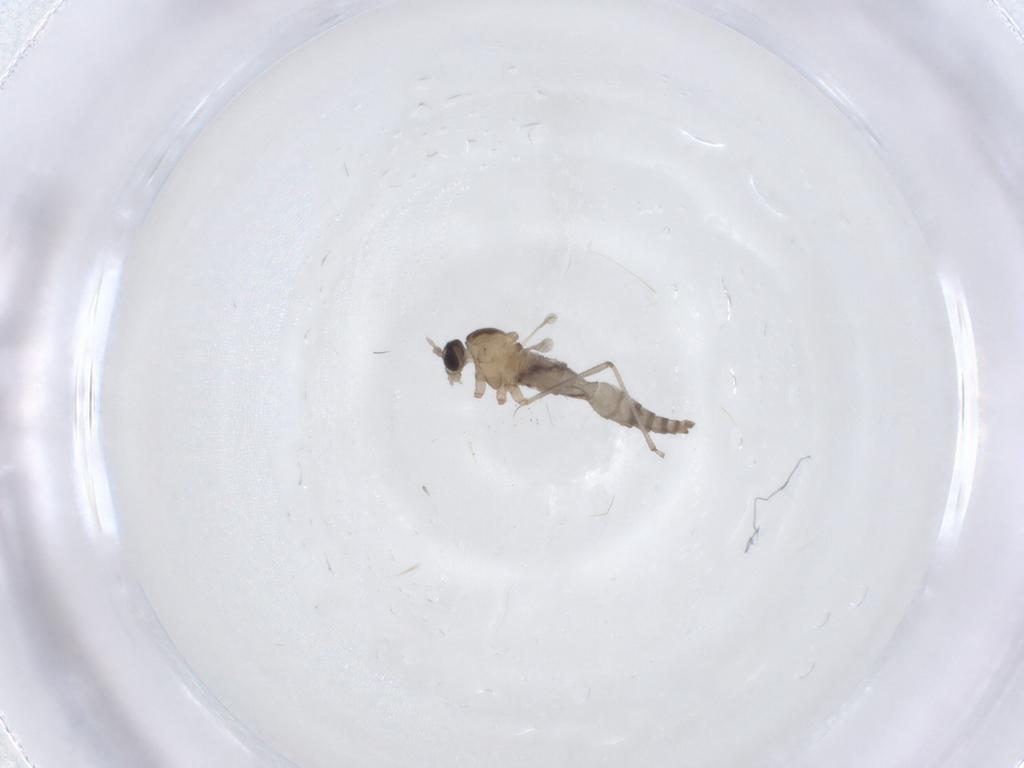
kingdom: Animalia
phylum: Arthropoda
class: Insecta
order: Diptera
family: Cecidomyiidae
